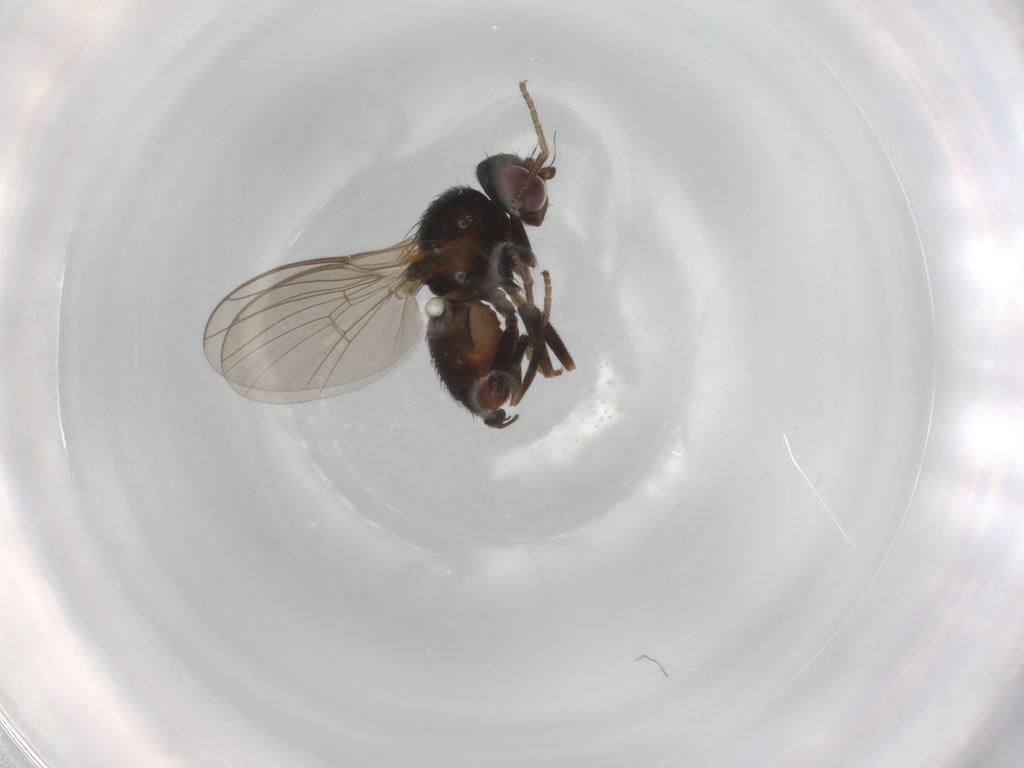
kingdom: Animalia
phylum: Arthropoda
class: Insecta
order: Diptera
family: Agromyzidae
